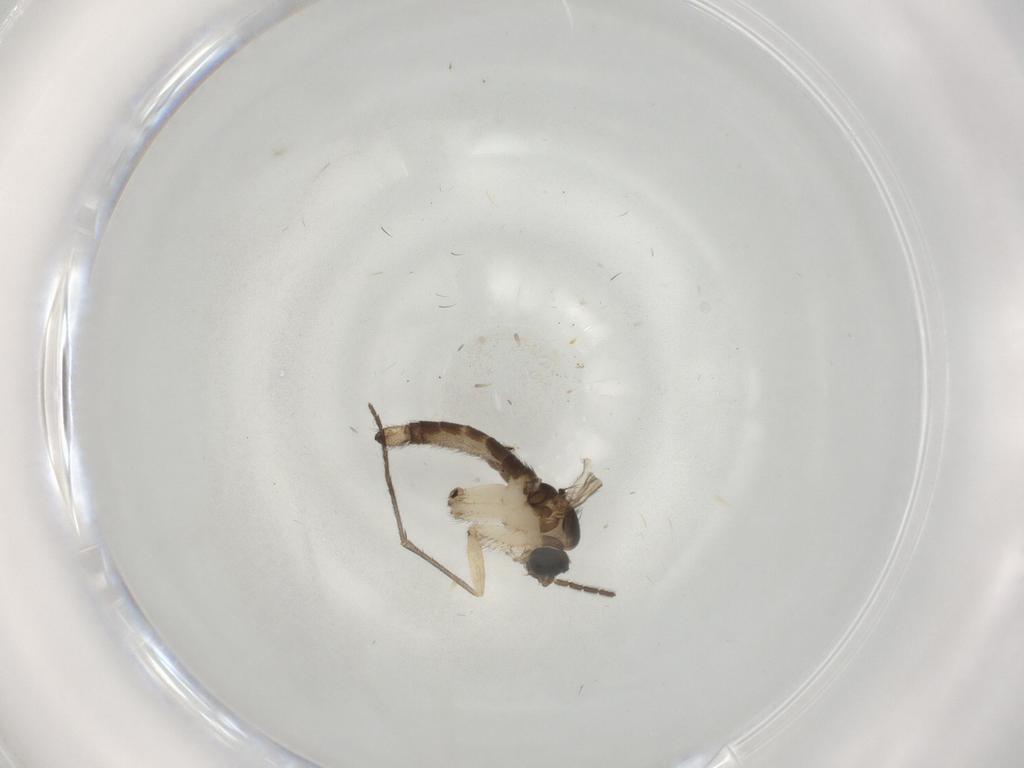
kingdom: Animalia
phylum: Arthropoda
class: Insecta
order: Diptera
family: Sciaridae
